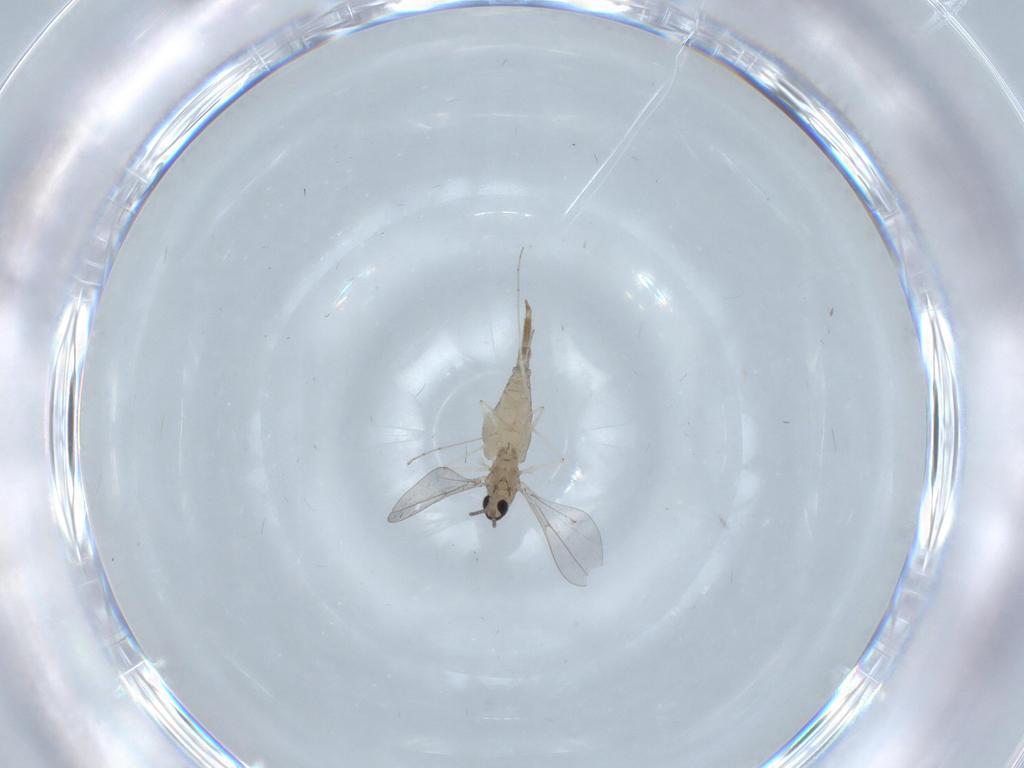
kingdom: Animalia
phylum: Arthropoda
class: Insecta
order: Diptera
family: Cecidomyiidae
